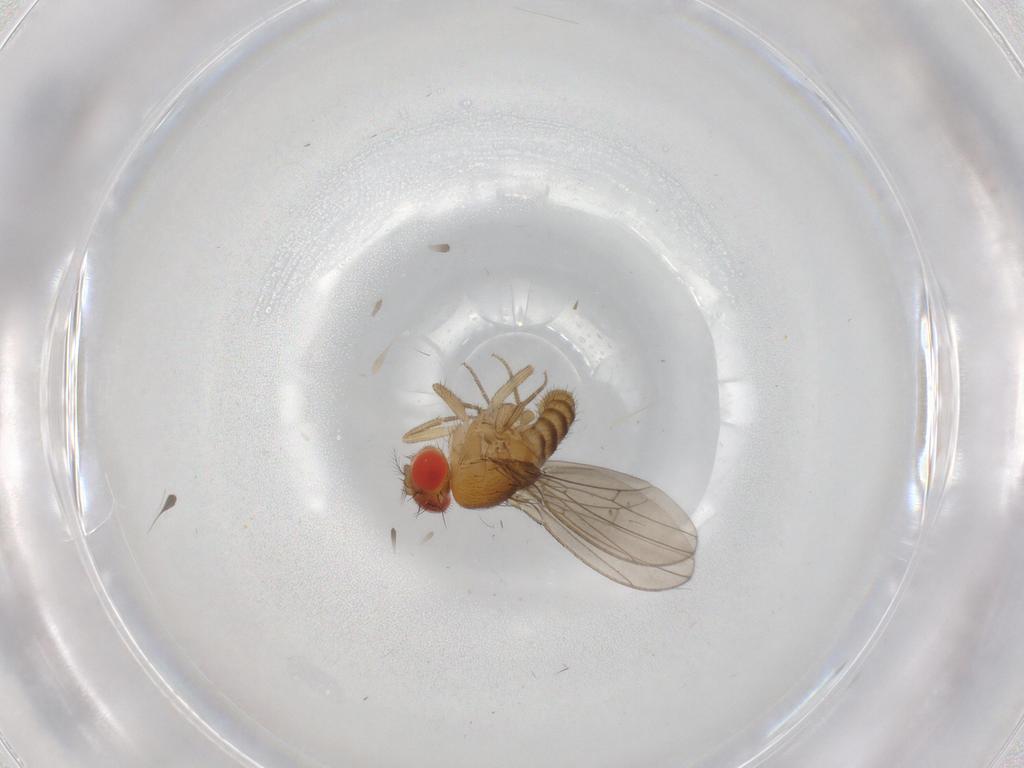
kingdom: Animalia
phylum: Arthropoda
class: Insecta
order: Diptera
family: Drosophilidae
